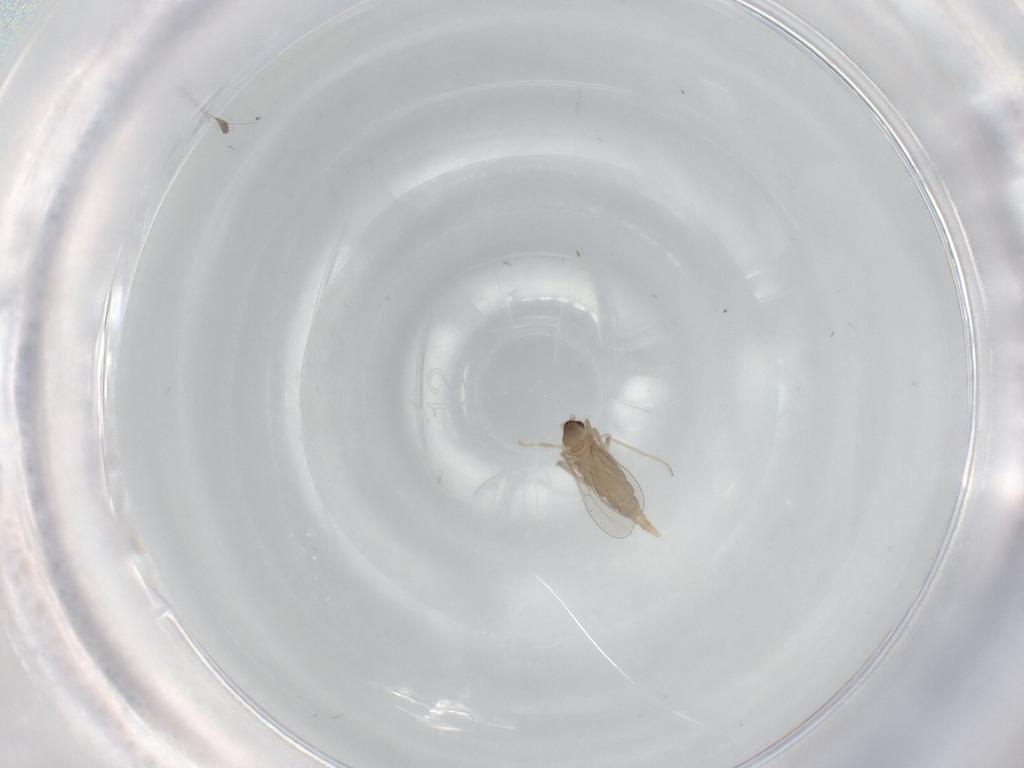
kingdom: Animalia
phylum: Arthropoda
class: Insecta
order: Diptera
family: Cecidomyiidae
